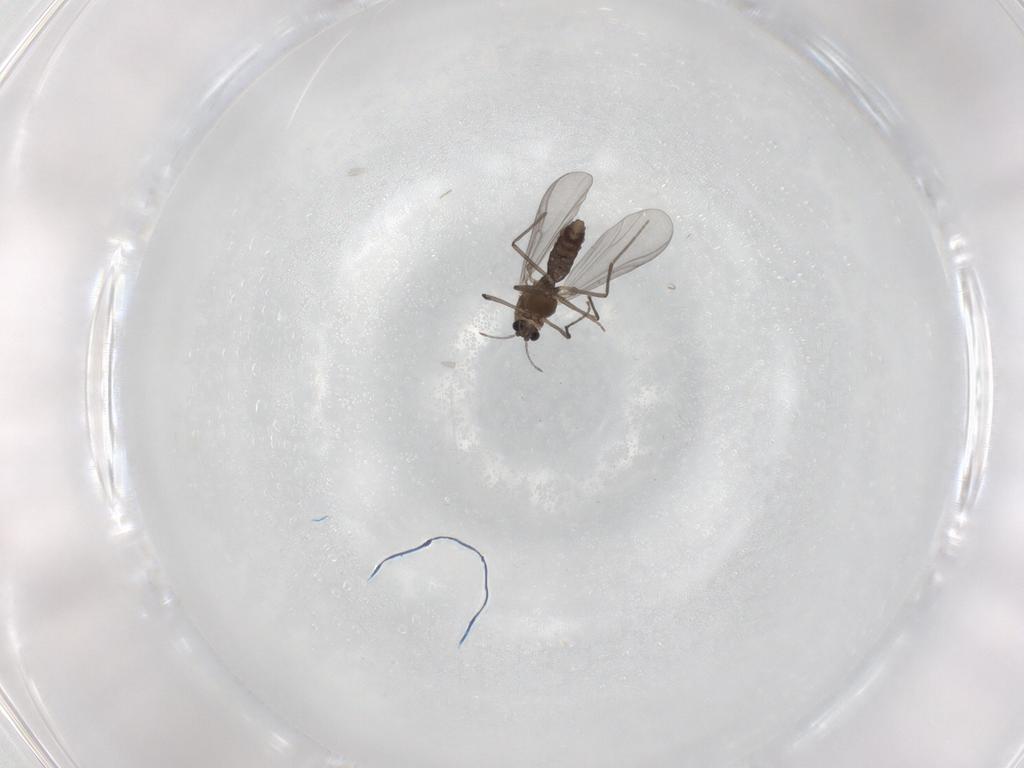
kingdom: Animalia
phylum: Arthropoda
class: Insecta
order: Diptera
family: Chironomidae
